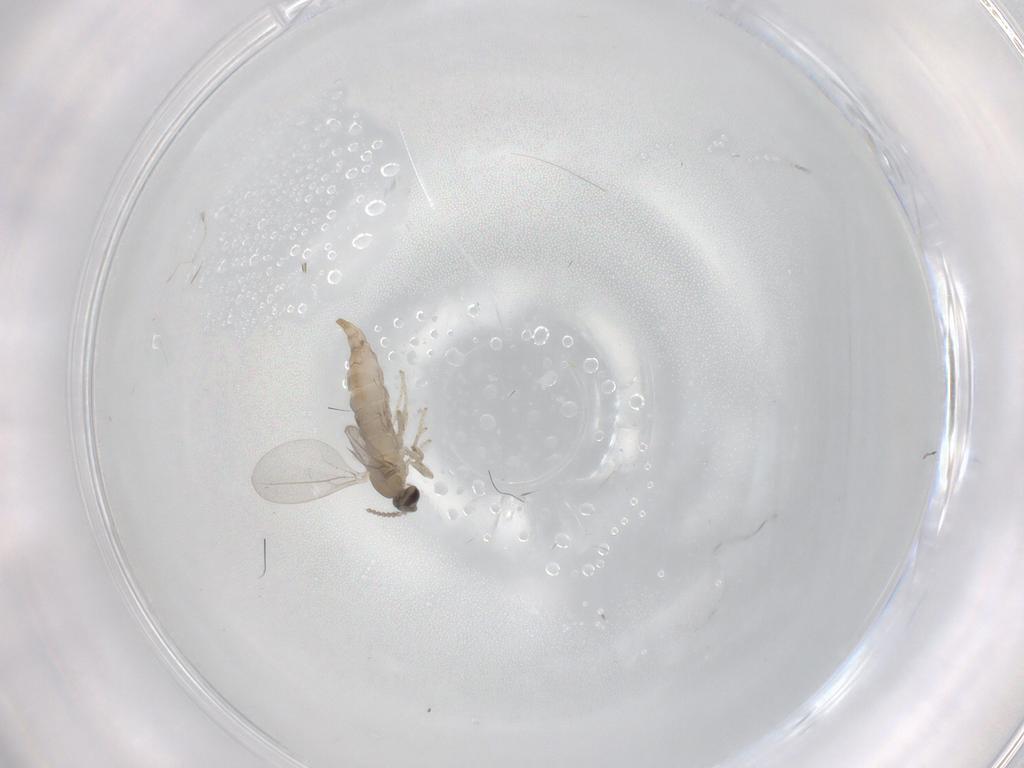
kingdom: Animalia
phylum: Arthropoda
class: Insecta
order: Diptera
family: Cecidomyiidae
